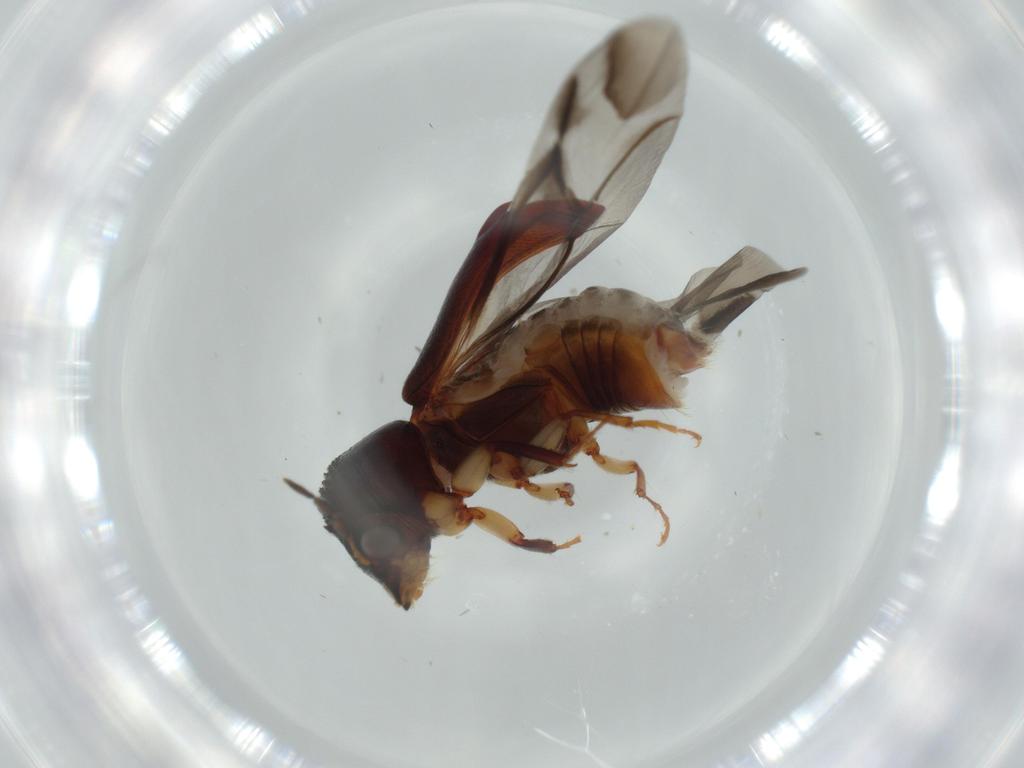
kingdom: Animalia
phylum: Arthropoda
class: Insecta
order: Coleoptera
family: Bostrichidae
